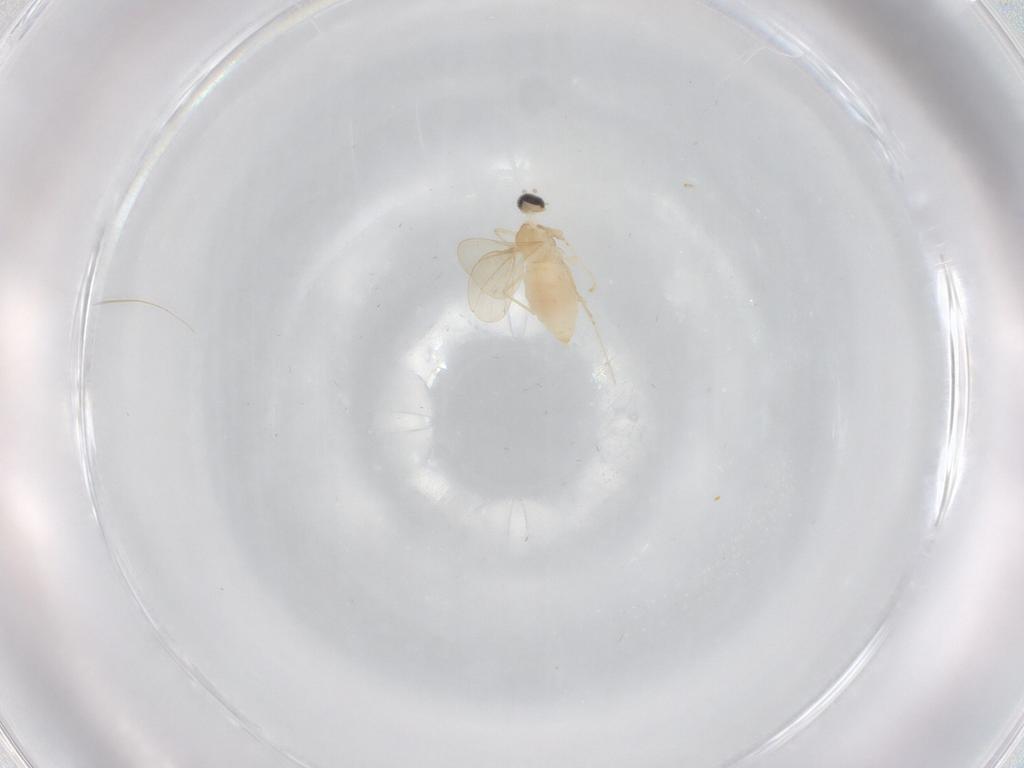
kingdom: Animalia
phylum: Arthropoda
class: Insecta
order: Diptera
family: Cecidomyiidae
